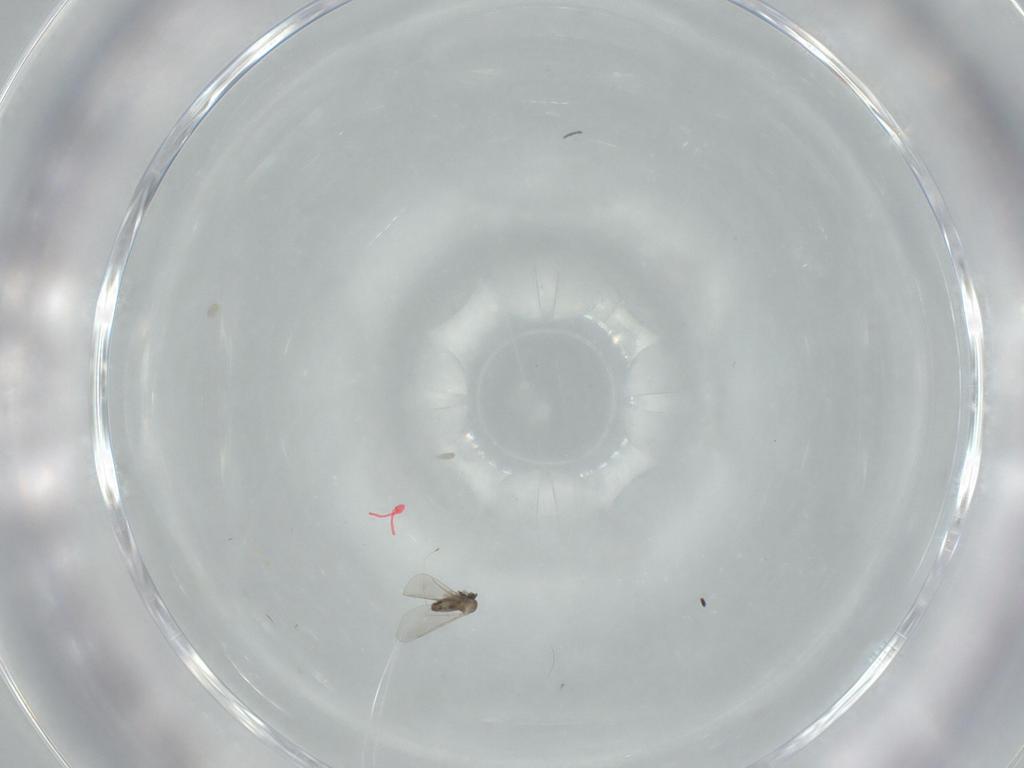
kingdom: Animalia
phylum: Arthropoda
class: Insecta
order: Diptera
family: Cecidomyiidae
